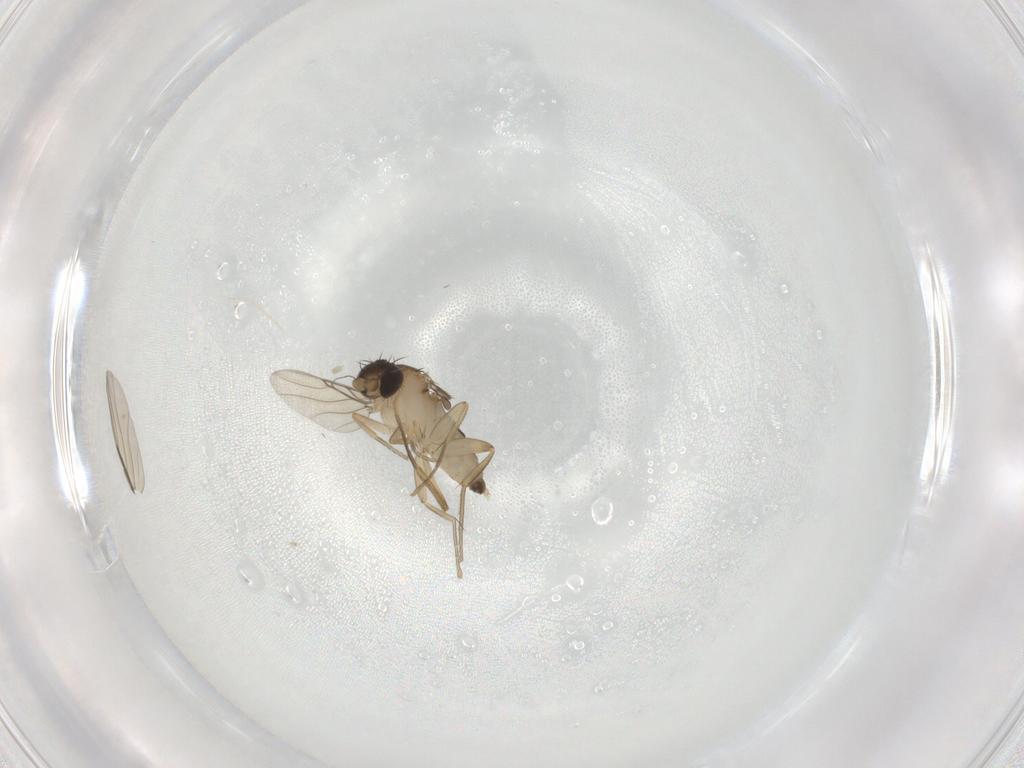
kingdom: Animalia
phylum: Arthropoda
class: Insecta
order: Diptera
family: Phoridae
